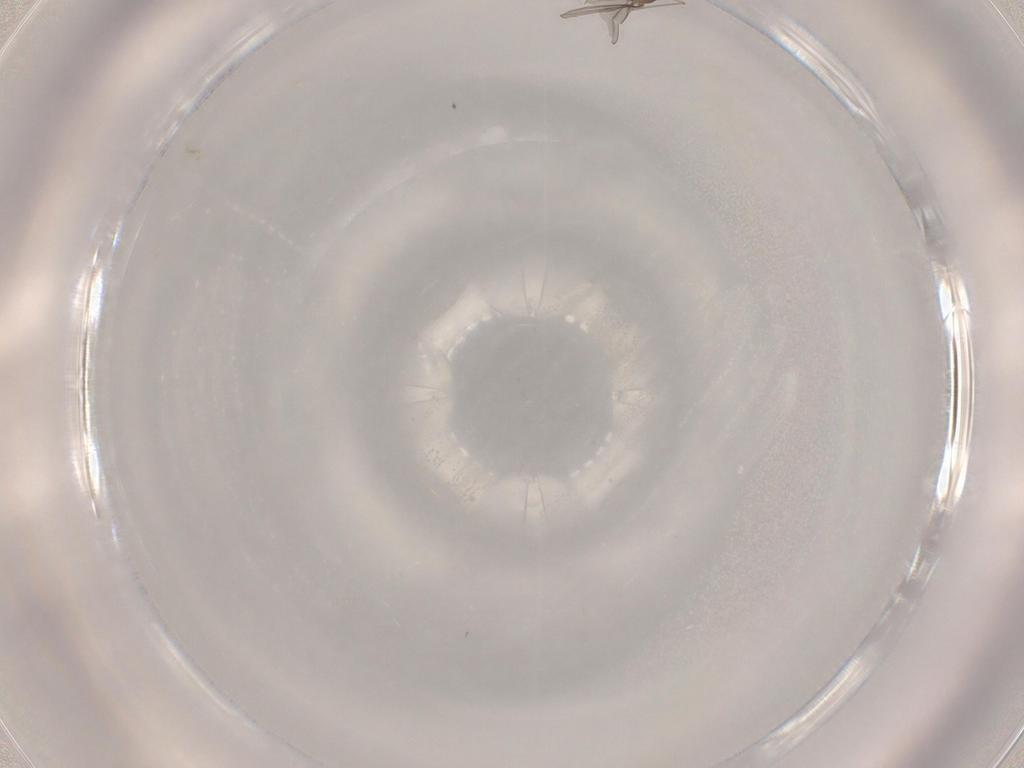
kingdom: Animalia
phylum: Arthropoda
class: Insecta
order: Diptera
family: Cecidomyiidae
